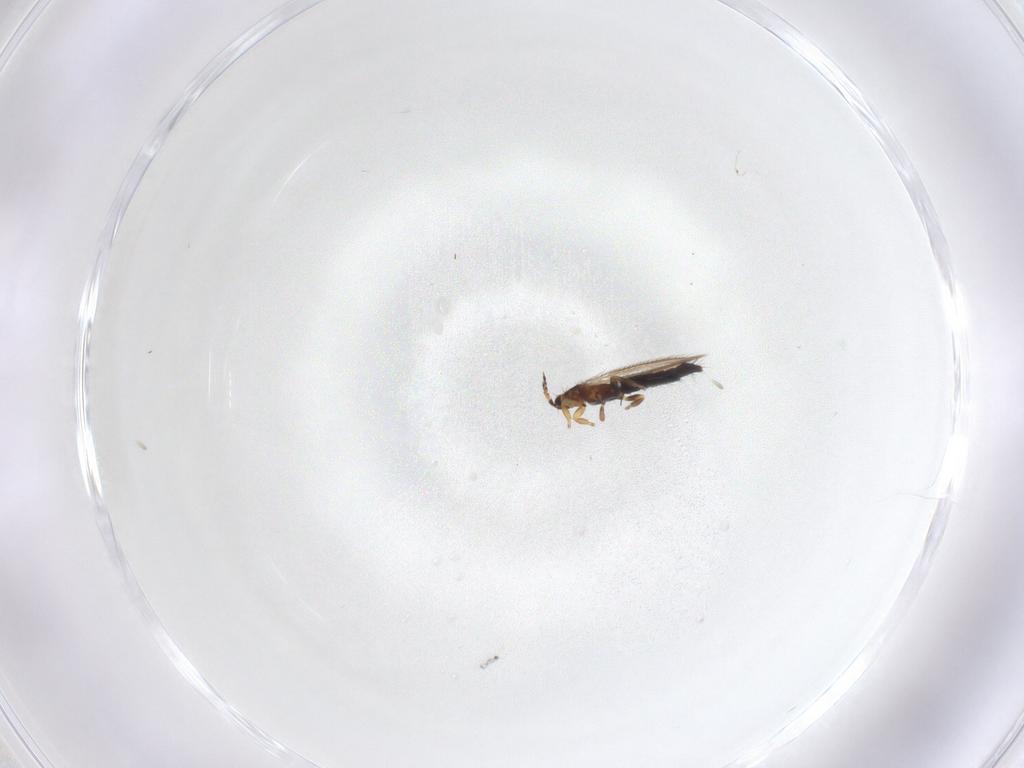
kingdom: Animalia
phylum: Arthropoda
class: Insecta
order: Thysanoptera
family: Thripidae
